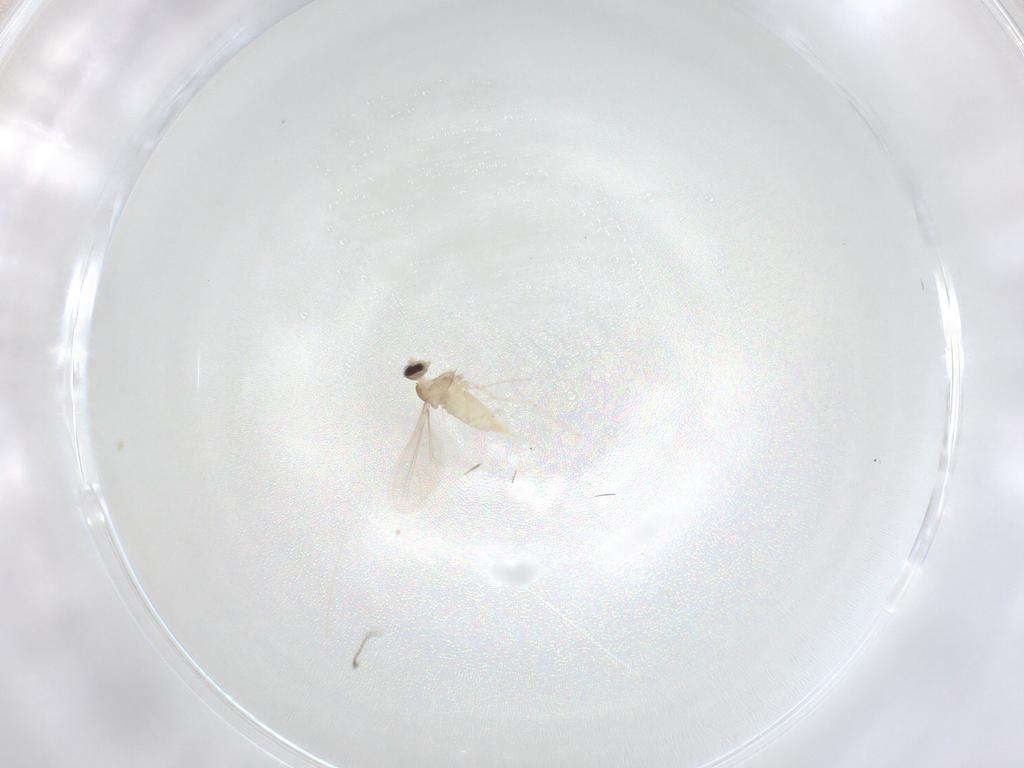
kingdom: Animalia
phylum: Arthropoda
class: Insecta
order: Diptera
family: Cecidomyiidae
